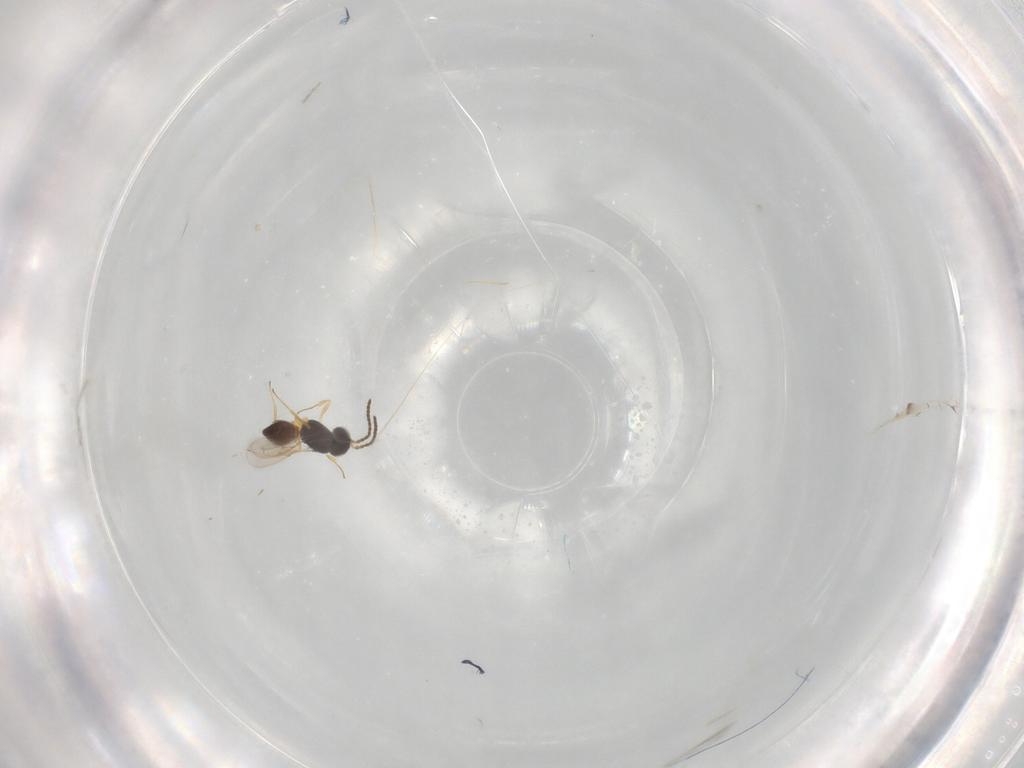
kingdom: Animalia
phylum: Arthropoda
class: Insecta
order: Hymenoptera
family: Scelionidae
